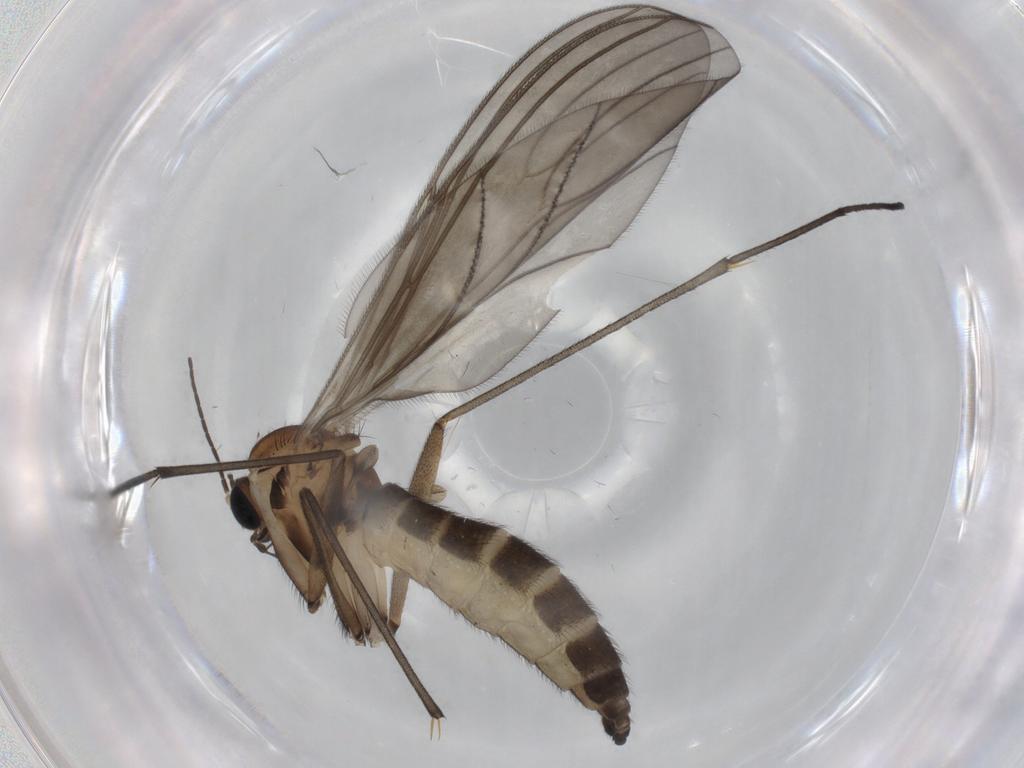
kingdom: Animalia
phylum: Arthropoda
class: Insecta
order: Diptera
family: Sciaridae
